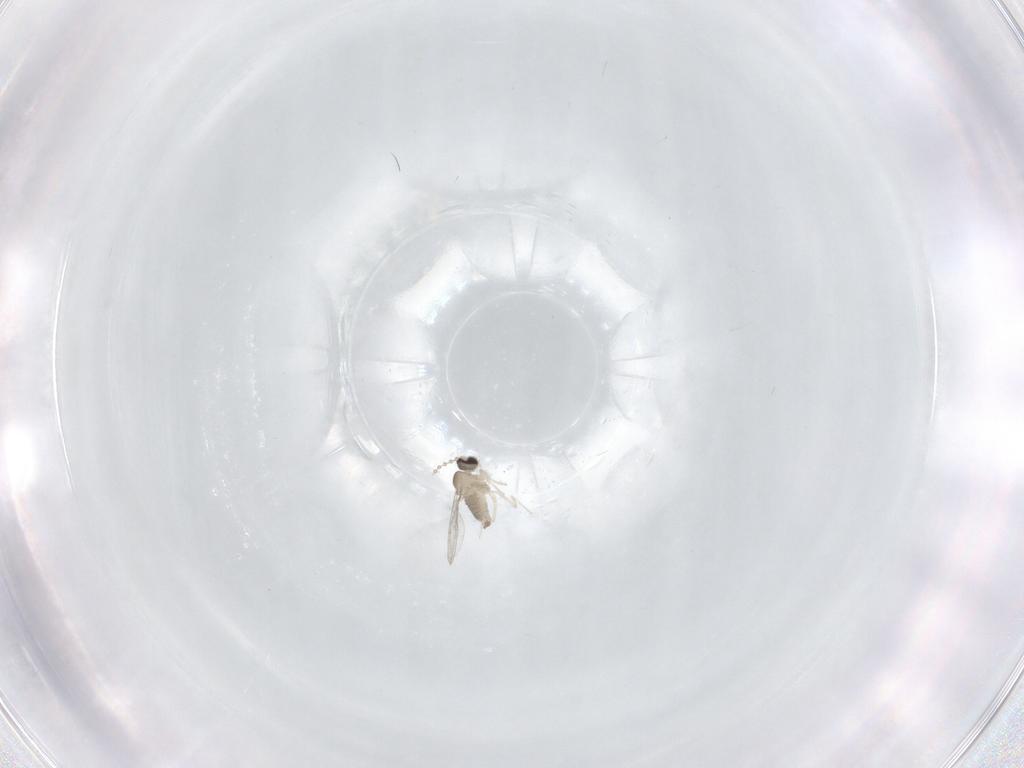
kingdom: Animalia
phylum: Arthropoda
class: Insecta
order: Diptera
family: Cecidomyiidae
